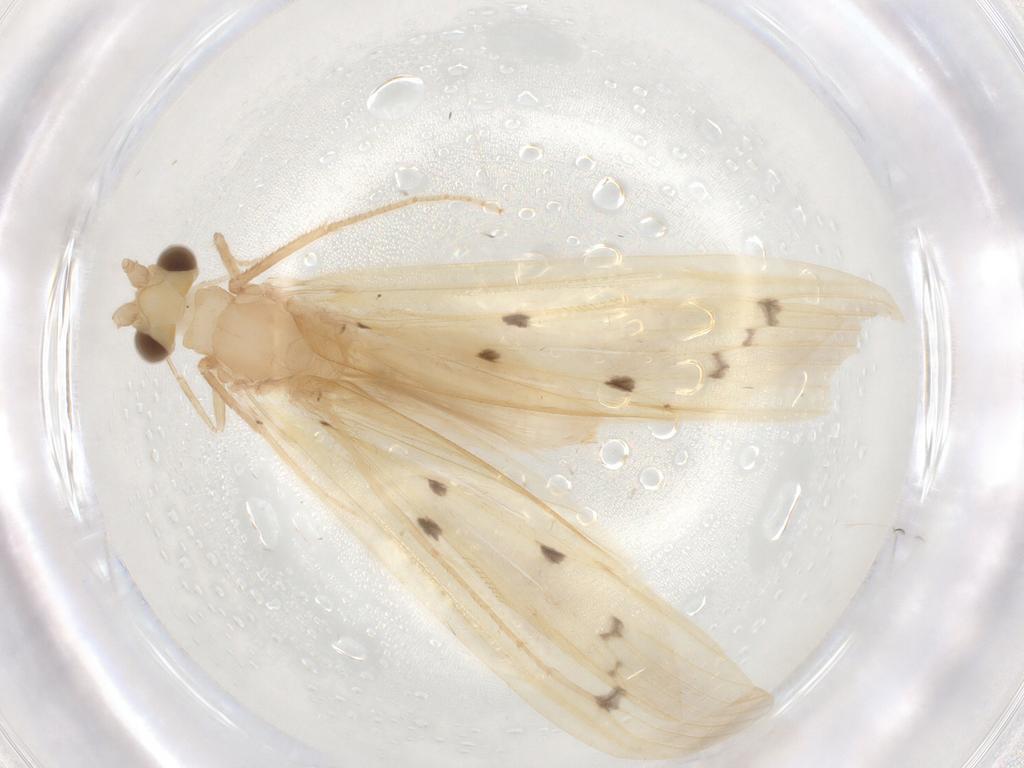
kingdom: Animalia
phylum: Arthropoda
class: Insecta
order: Trichoptera
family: Leptoceridae
